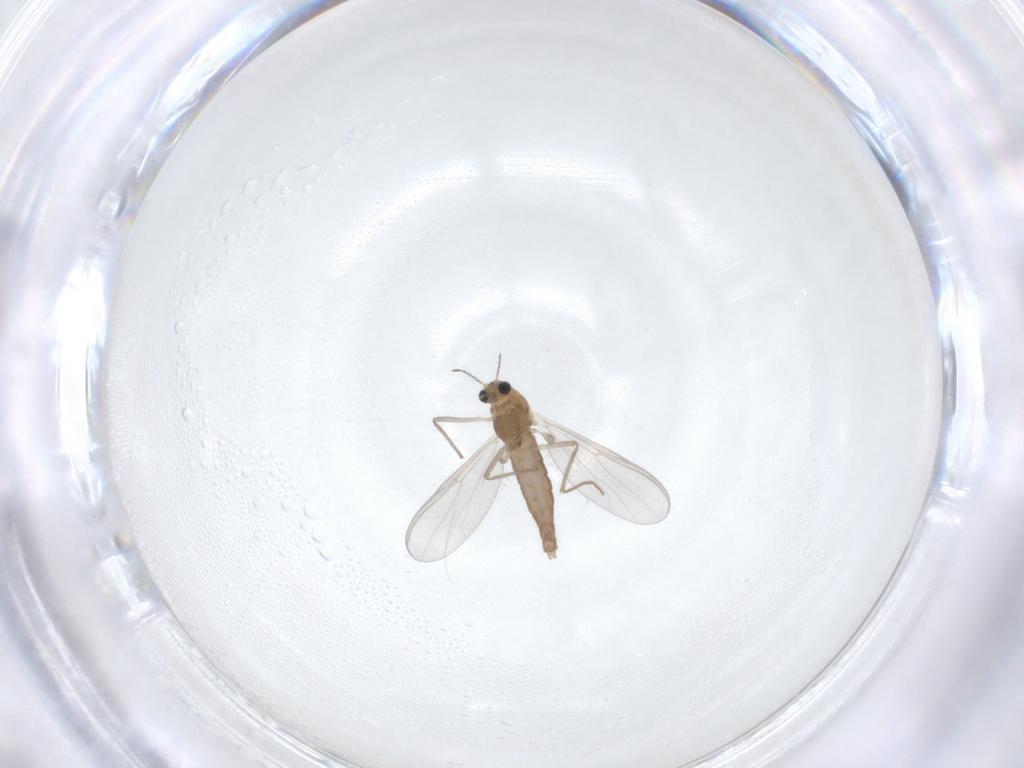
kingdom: Animalia
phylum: Arthropoda
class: Insecta
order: Diptera
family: Chironomidae
